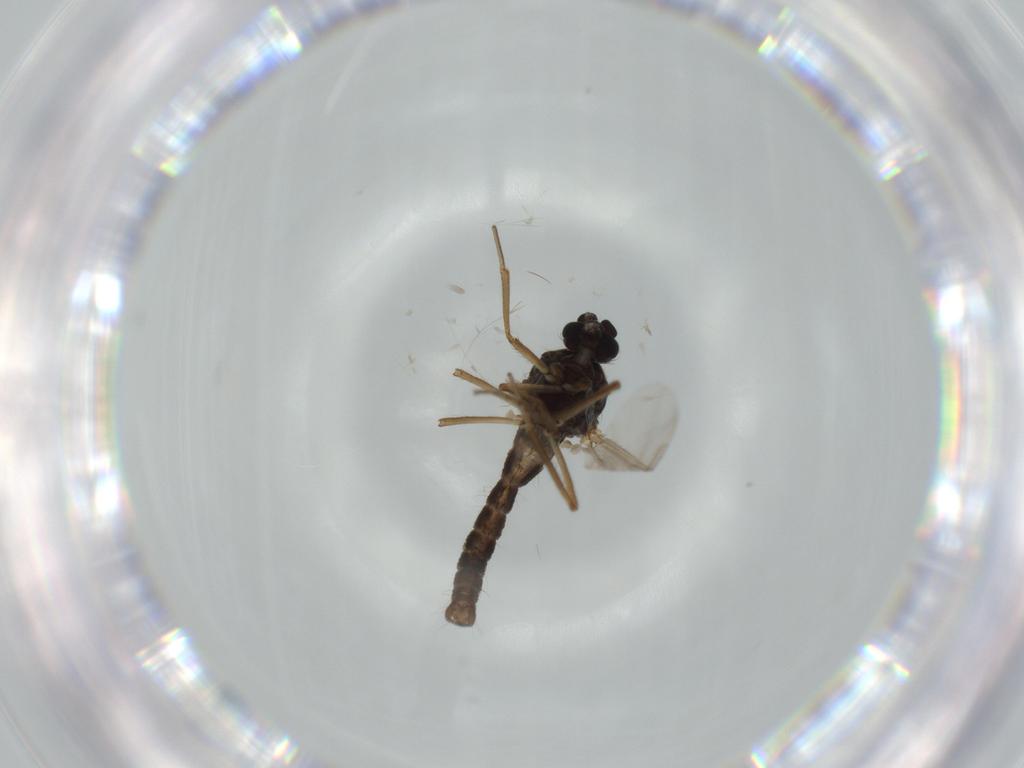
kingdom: Animalia
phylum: Arthropoda
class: Insecta
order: Diptera
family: Ceratopogonidae
